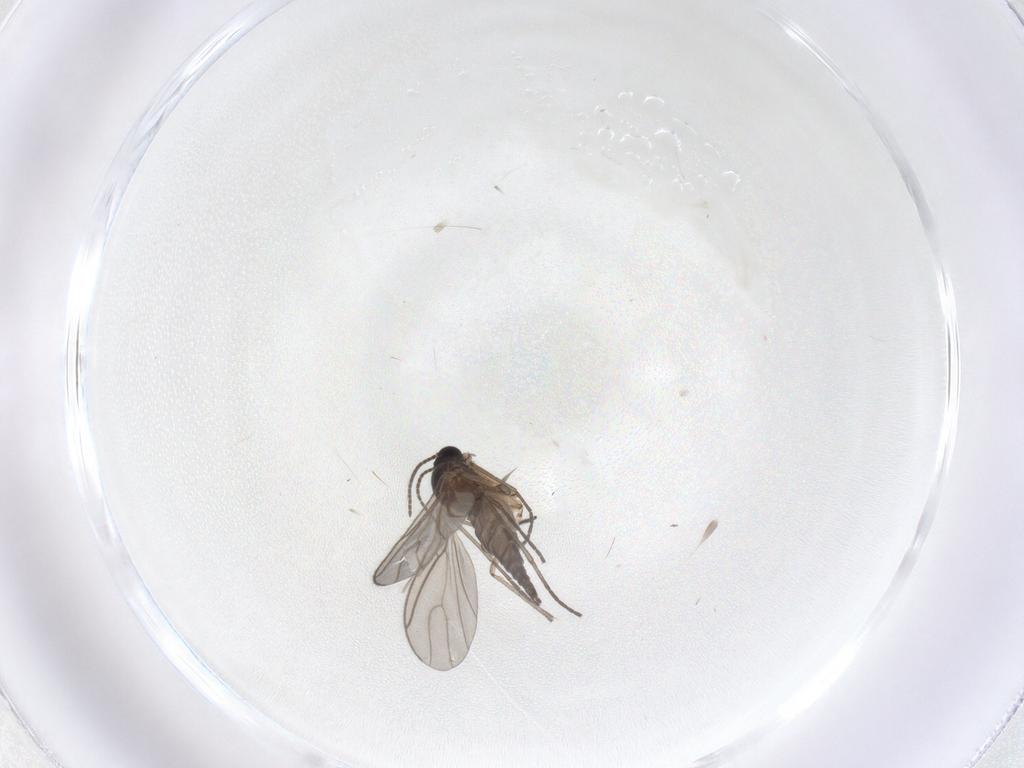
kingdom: Animalia
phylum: Arthropoda
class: Insecta
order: Diptera
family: Sciaridae
